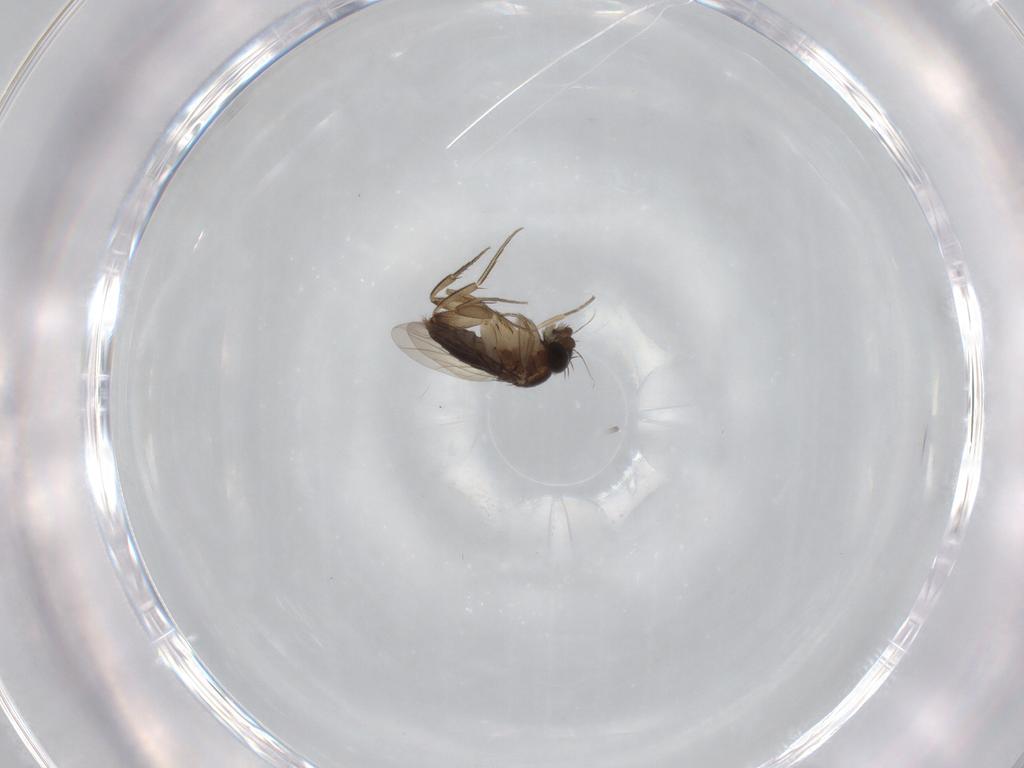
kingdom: Animalia
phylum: Arthropoda
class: Insecta
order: Diptera
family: Phoridae
